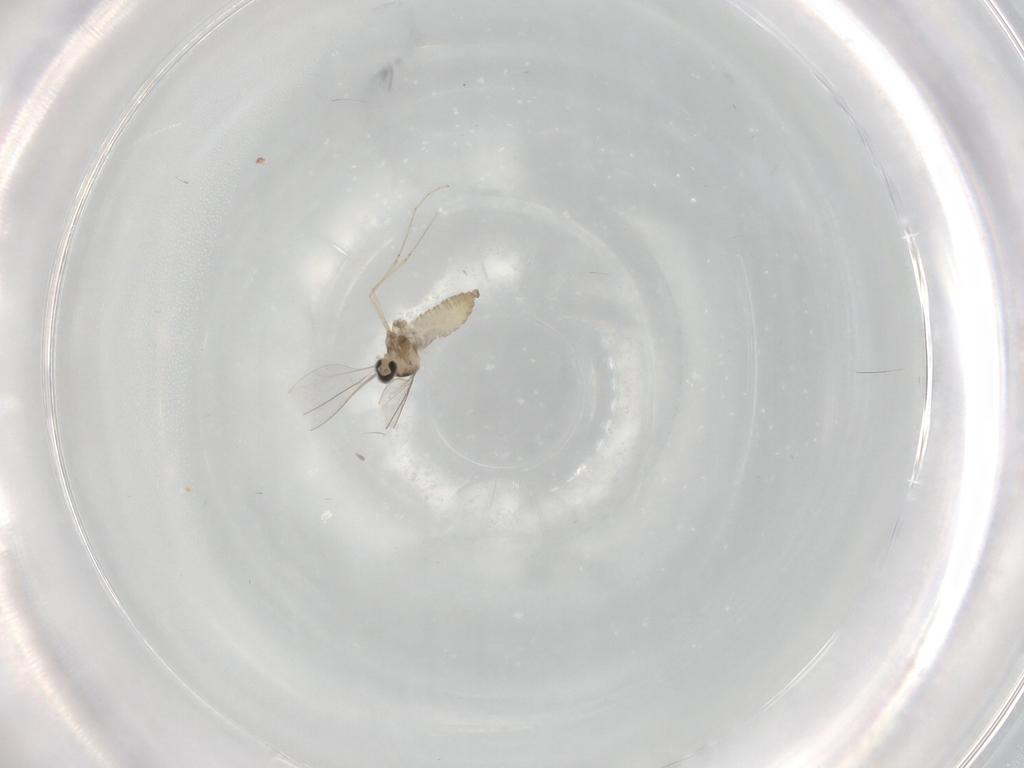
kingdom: Animalia
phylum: Arthropoda
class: Insecta
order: Diptera
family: Cecidomyiidae
